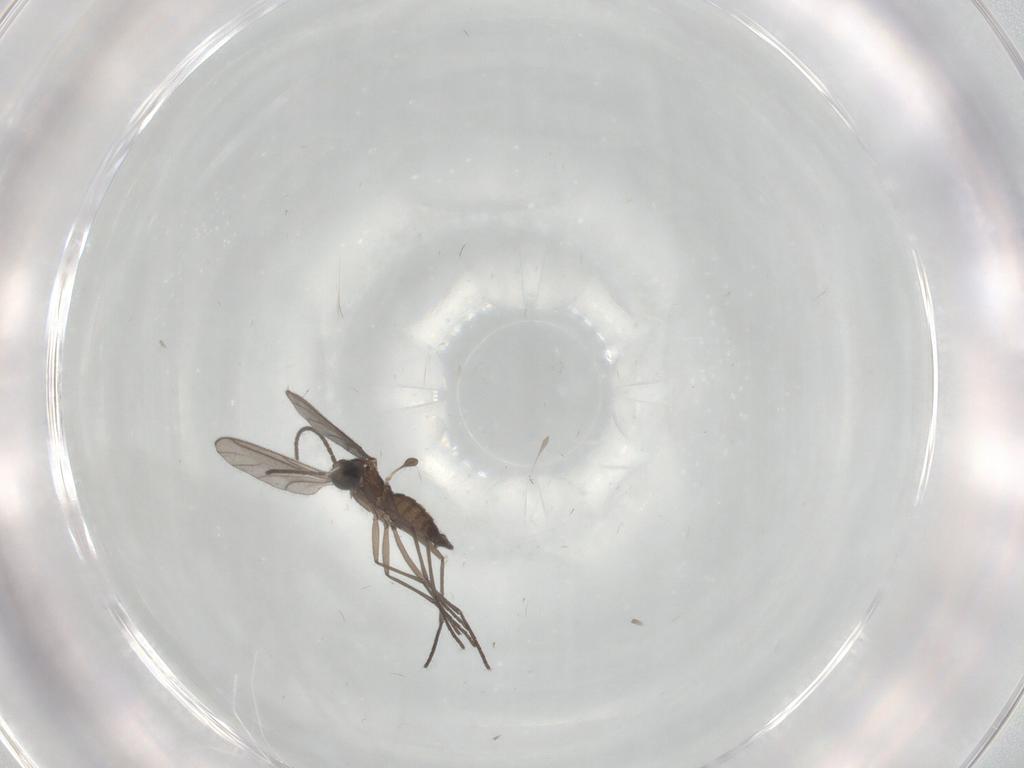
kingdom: Animalia
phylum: Arthropoda
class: Insecta
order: Diptera
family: Sciaridae
